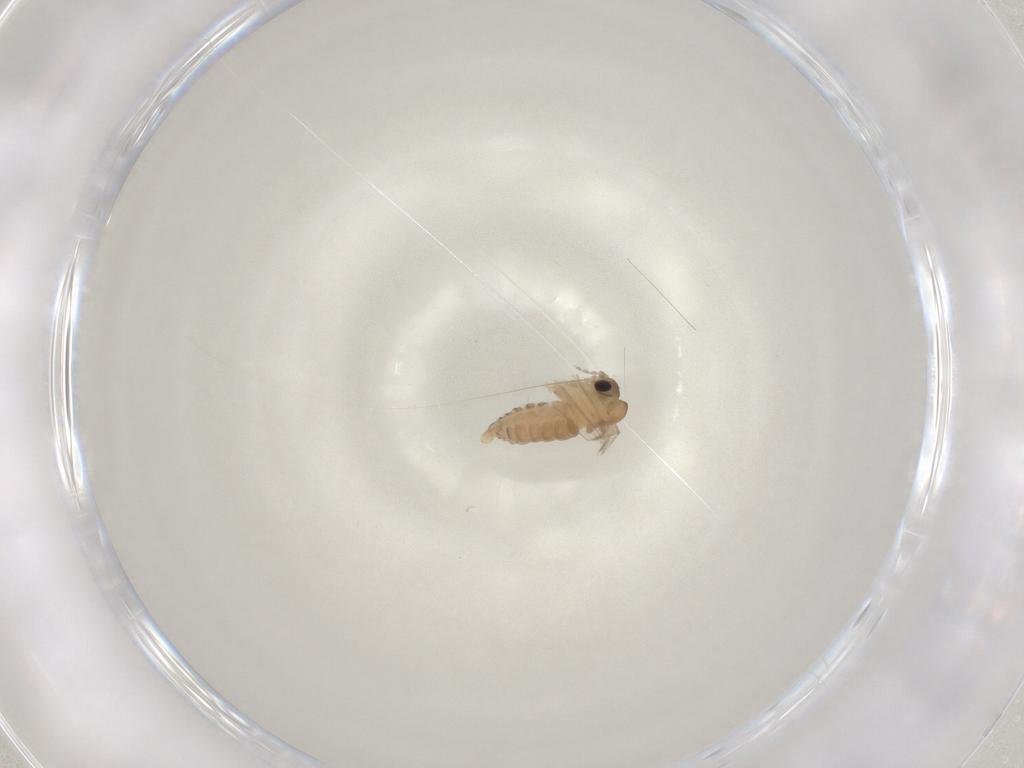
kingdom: Animalia
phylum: Arthropoda
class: Insecta
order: Diptera
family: Psychodidae
